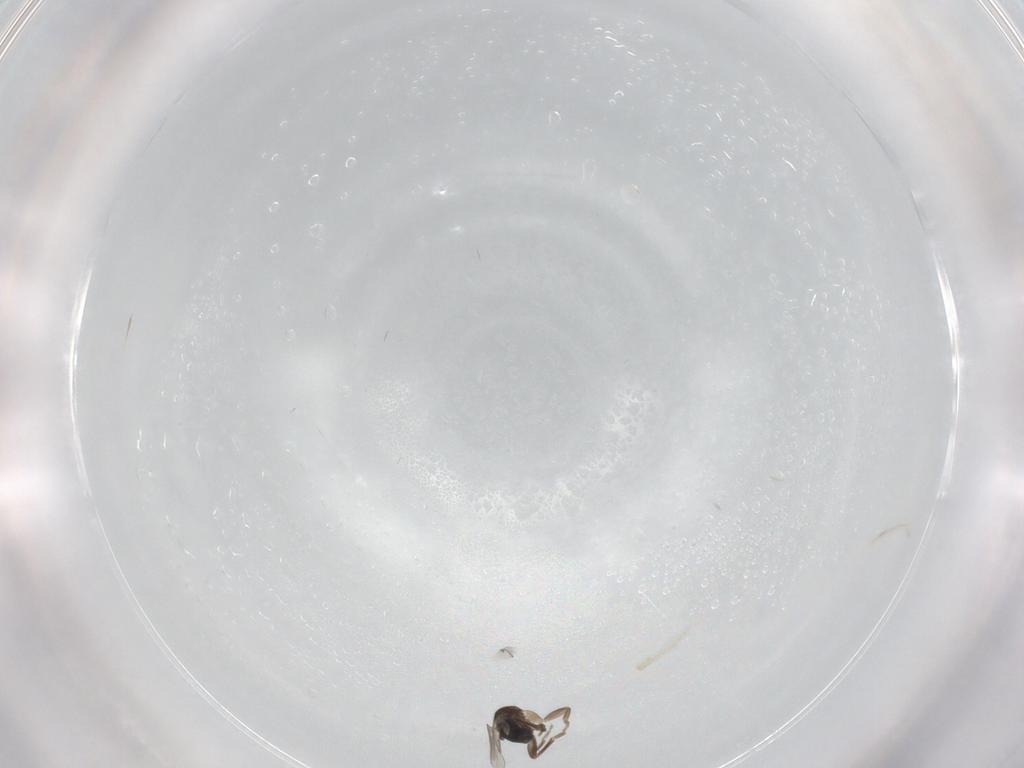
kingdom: Animalia
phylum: Arthropoda
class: Insecta
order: Diptera
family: Phoridae
